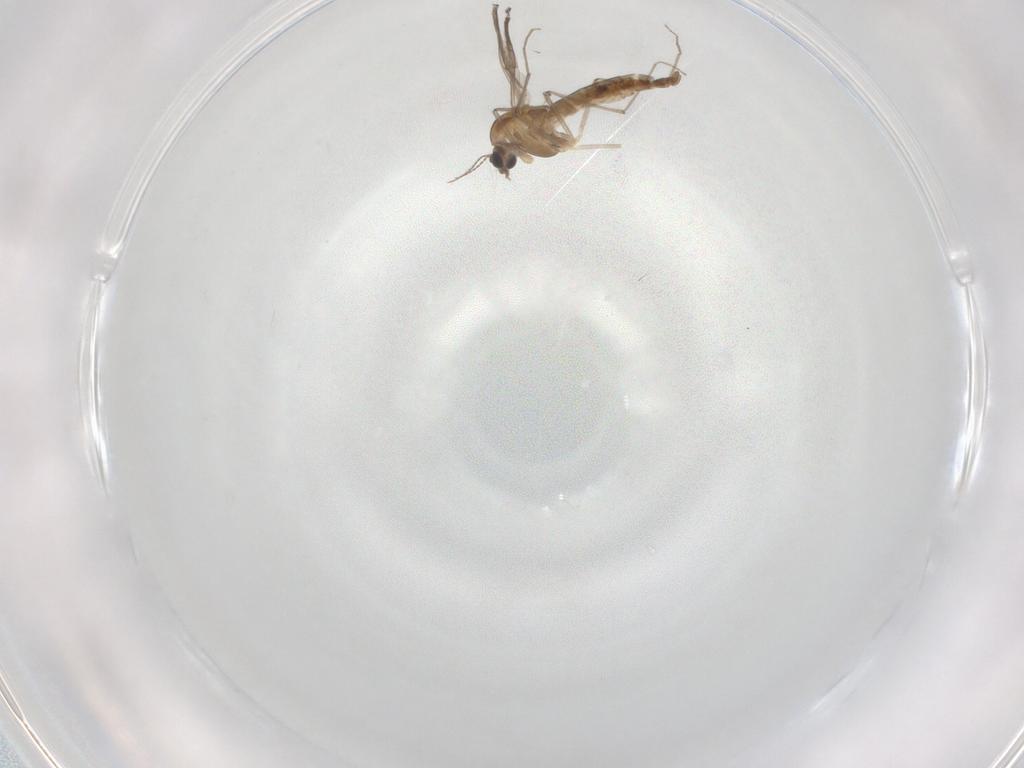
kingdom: Animalia
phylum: Arthropoda
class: Insecta
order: Diptera
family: Chironomidae
